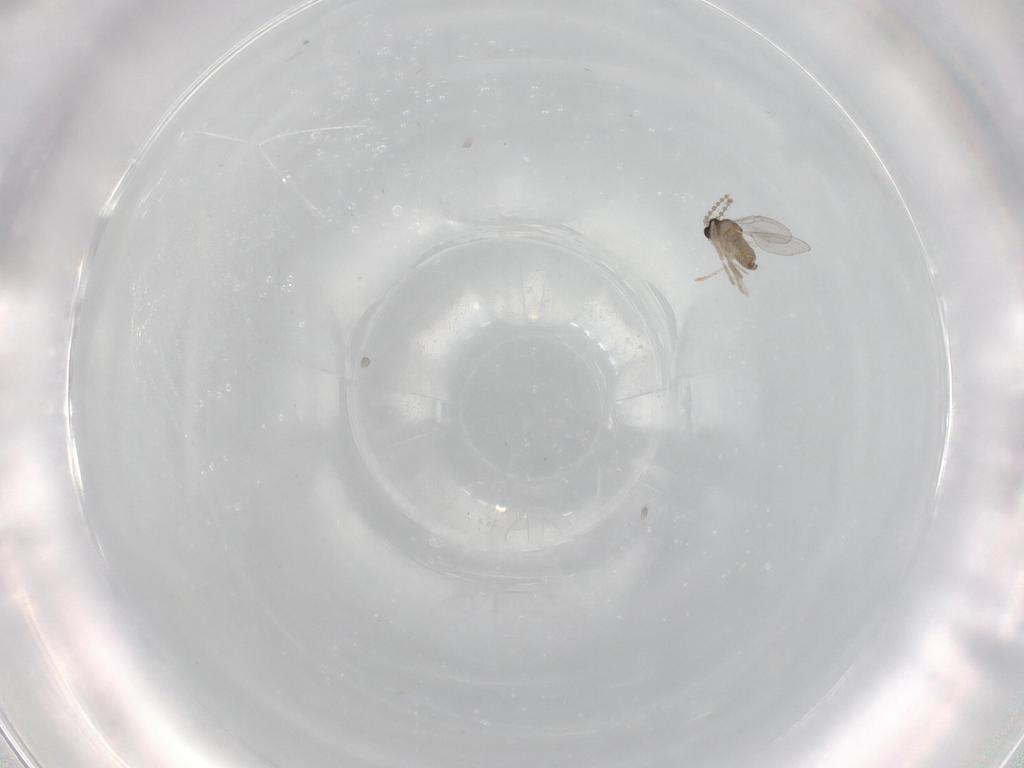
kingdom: Animalia
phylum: Arthropoda
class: Insecta
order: Diptera
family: Cecidomyiidae
